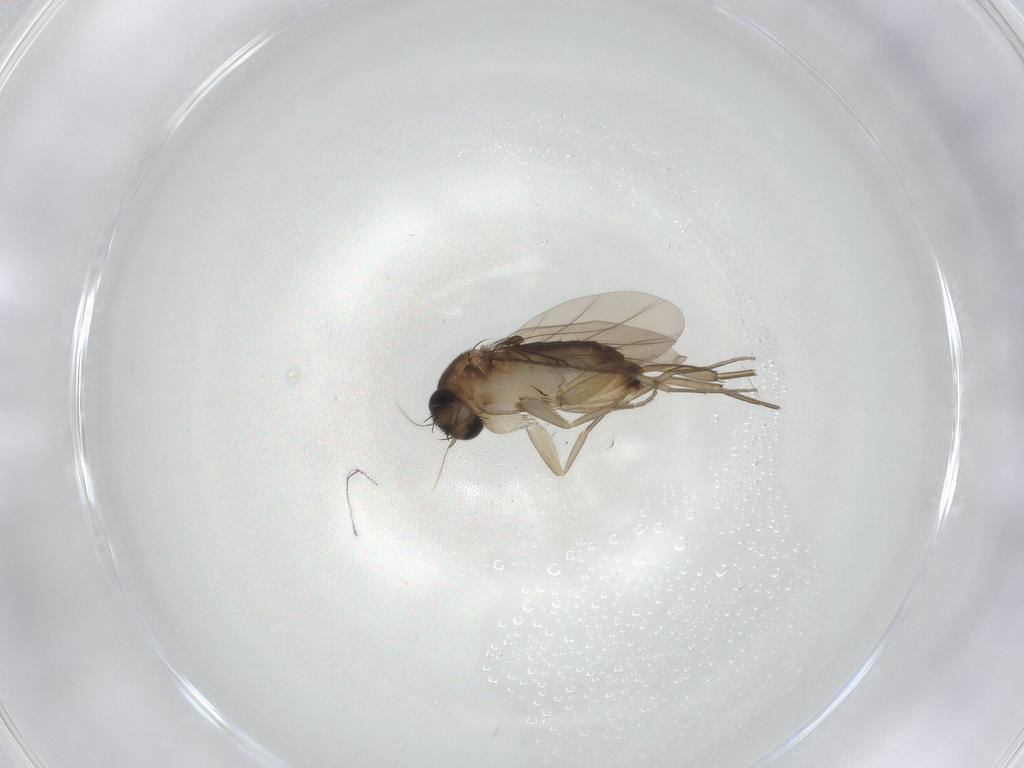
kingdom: Animalia
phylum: Arthropoda
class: Insecta
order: Diptera
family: Phoridae
